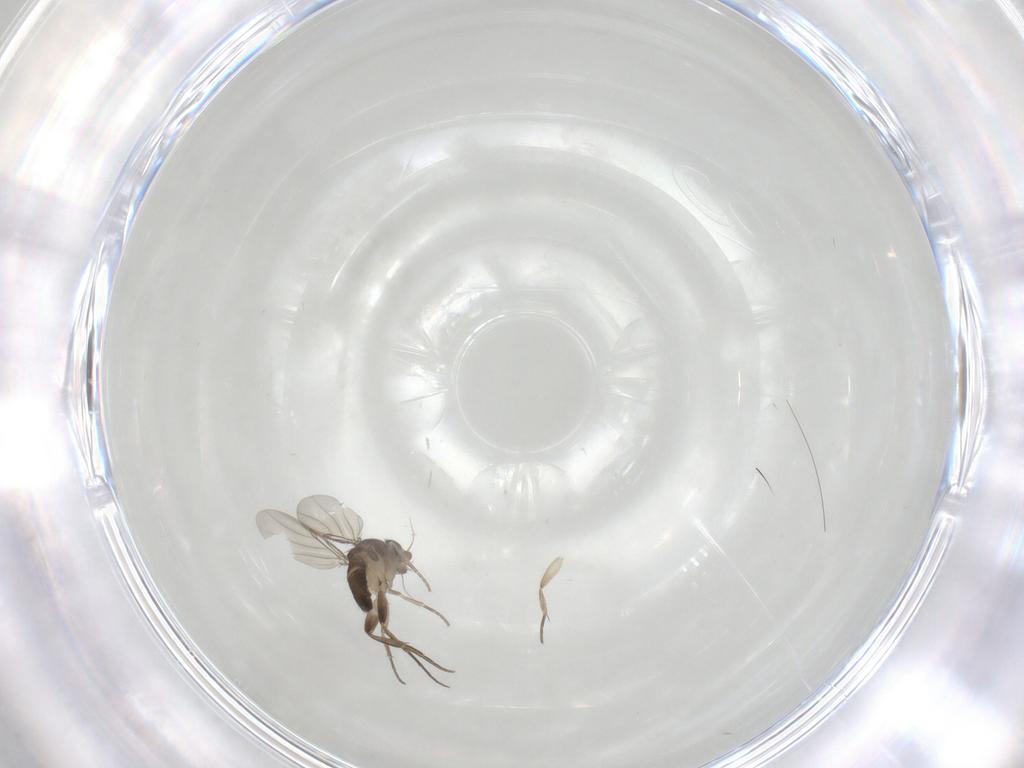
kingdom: Animalia
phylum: Arthropoda
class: Insecta
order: Diptera
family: Phoridae
